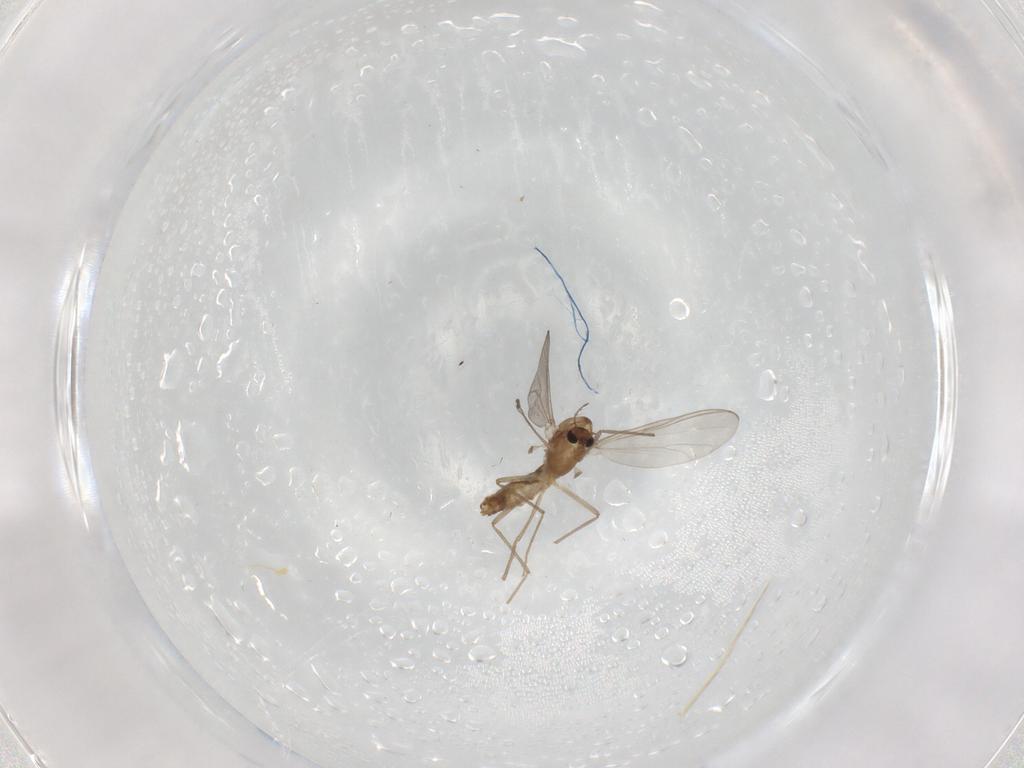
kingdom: Animalia
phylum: Arthropoda
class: Insecta
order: Diptera
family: Chironomidae
